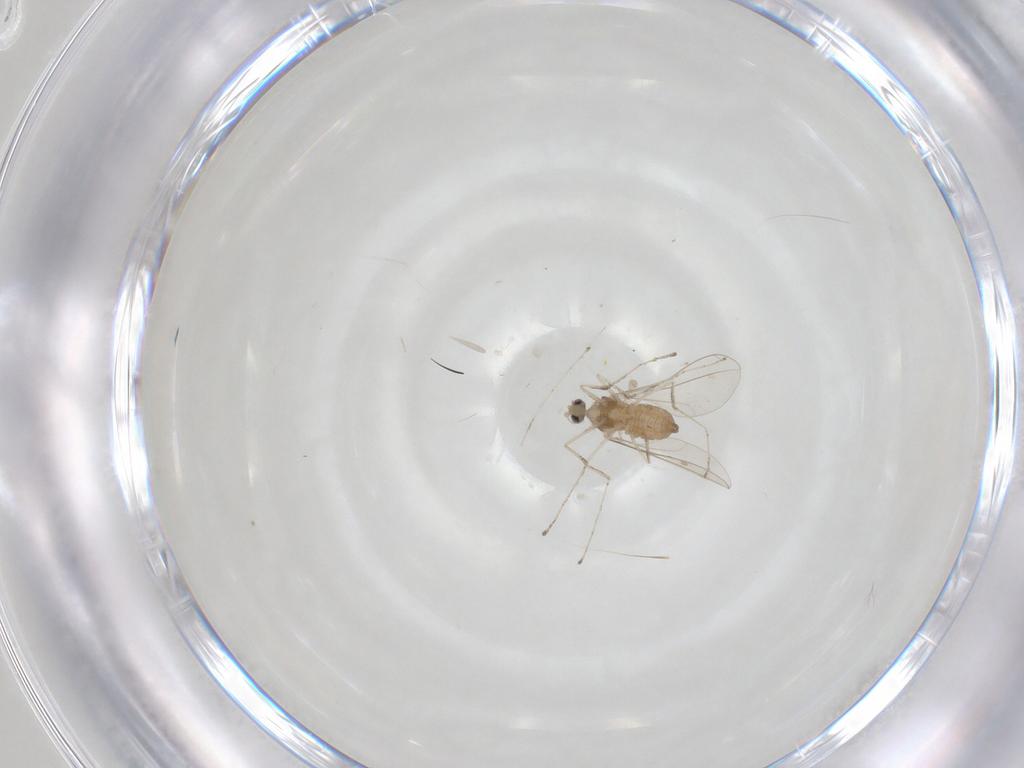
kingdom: Animalia
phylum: Arthropoda
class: Insecta
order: Diptera
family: Cecidomyiidae
